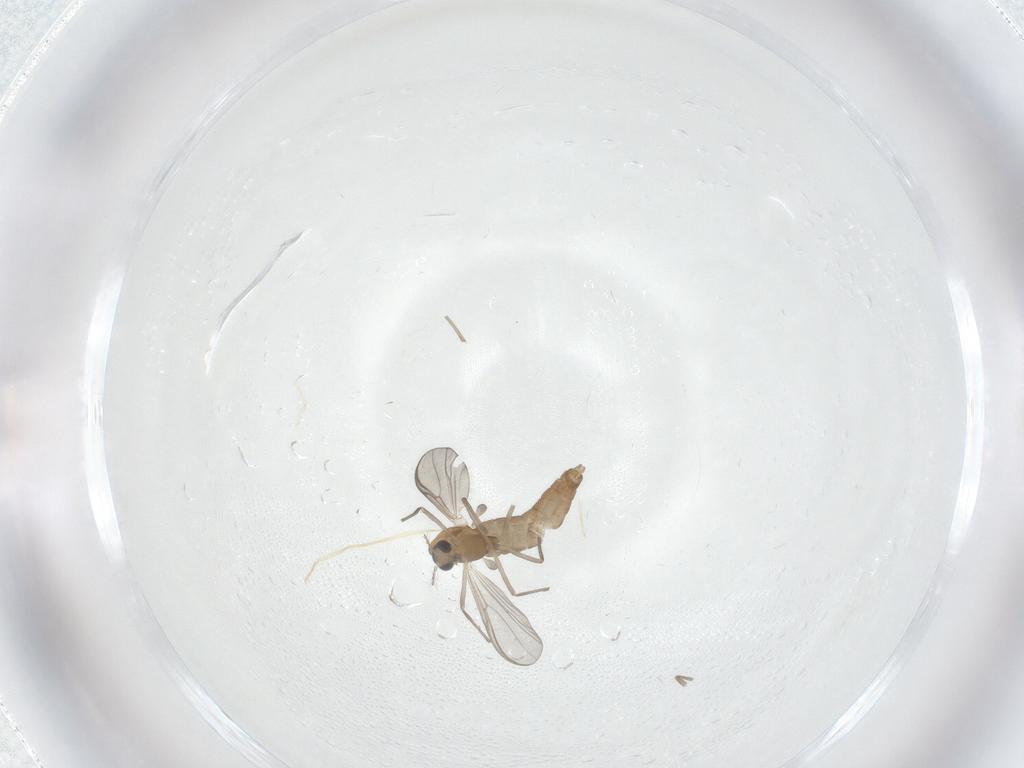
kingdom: Animalia
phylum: Arthropoda
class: Insecta
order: Diptera
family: Chironomidae
